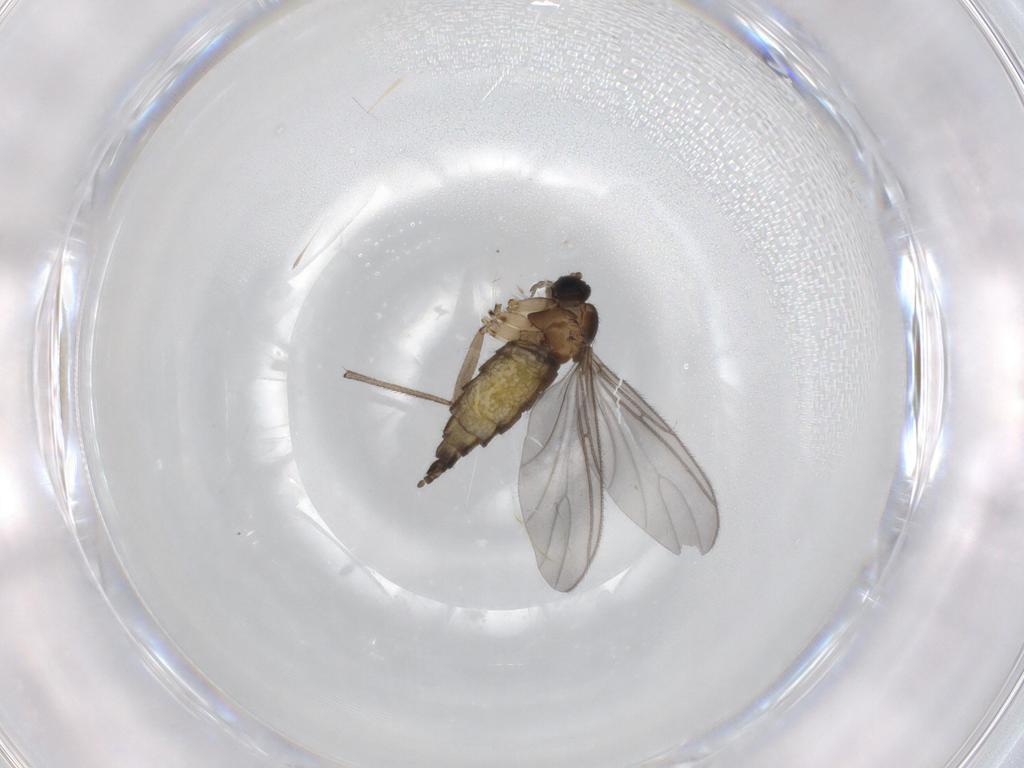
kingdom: Animalia
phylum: Arthropoda
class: Insecta
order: Diptera
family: Sciaridae
